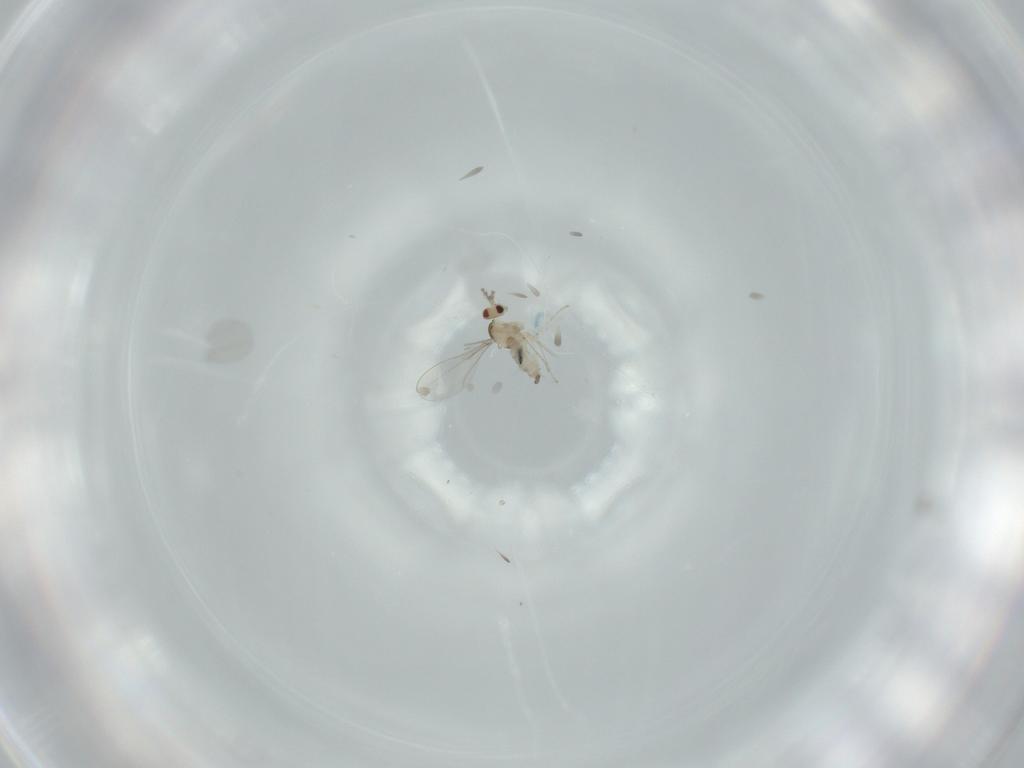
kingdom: Animalia
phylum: Arthropoda
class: Insecta
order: Diptera
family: Cecidomyiidae
